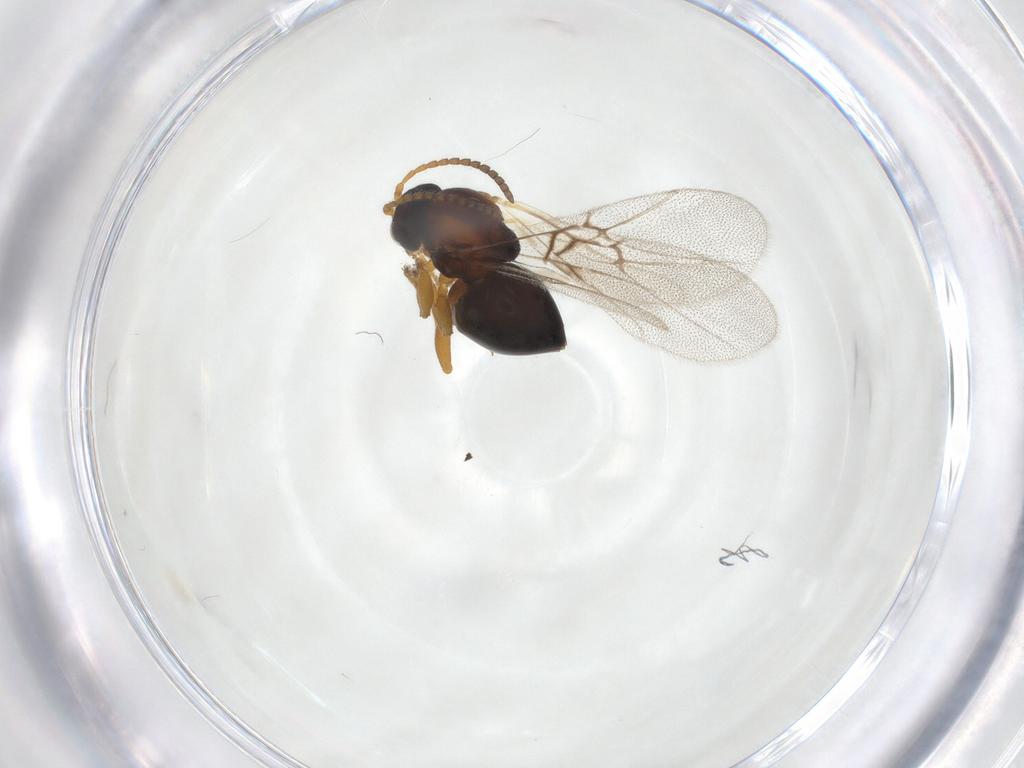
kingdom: Animalia
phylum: Arthropoda
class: Insecta
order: Hymenoptera
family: Cynipidae
